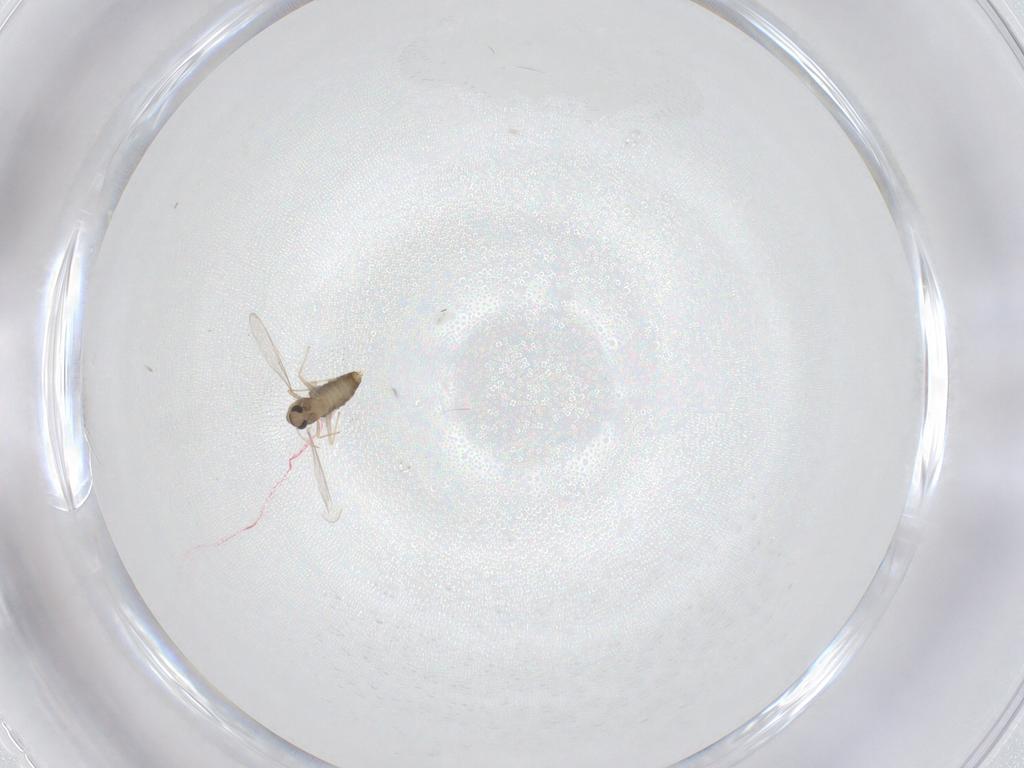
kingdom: Animalia
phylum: Arthropoda
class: Insecta
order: Diptera
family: Chironomidae
